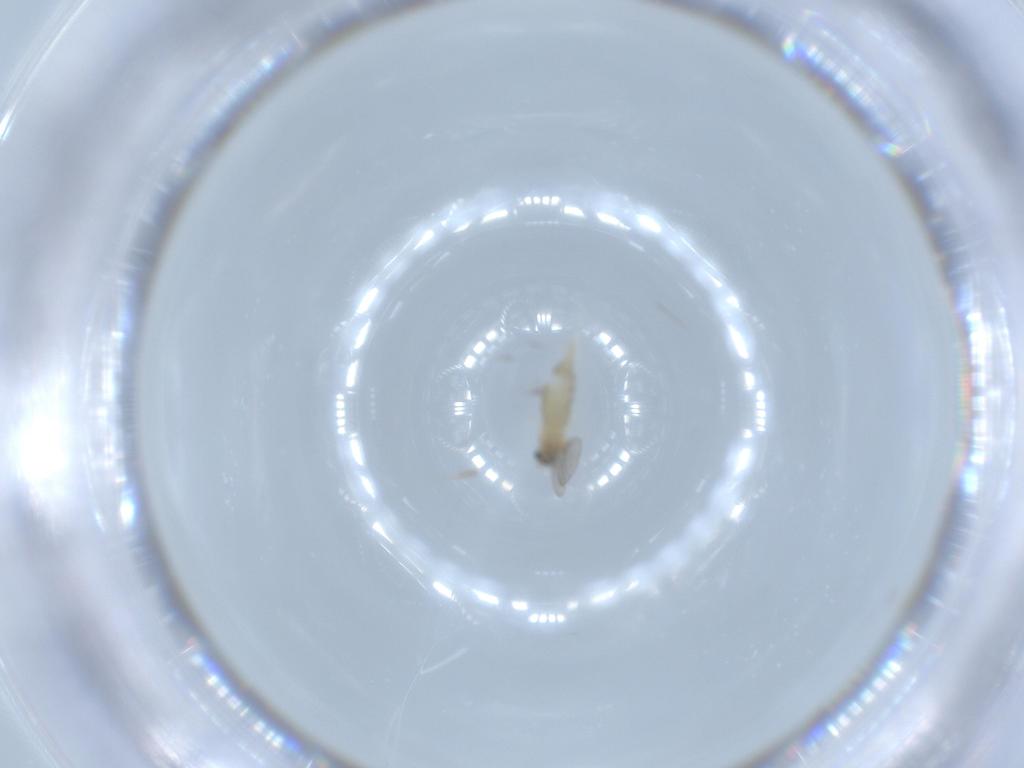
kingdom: Animalia
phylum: Arthropoda
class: Insecta
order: Diptera
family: Cecidomyiidae
